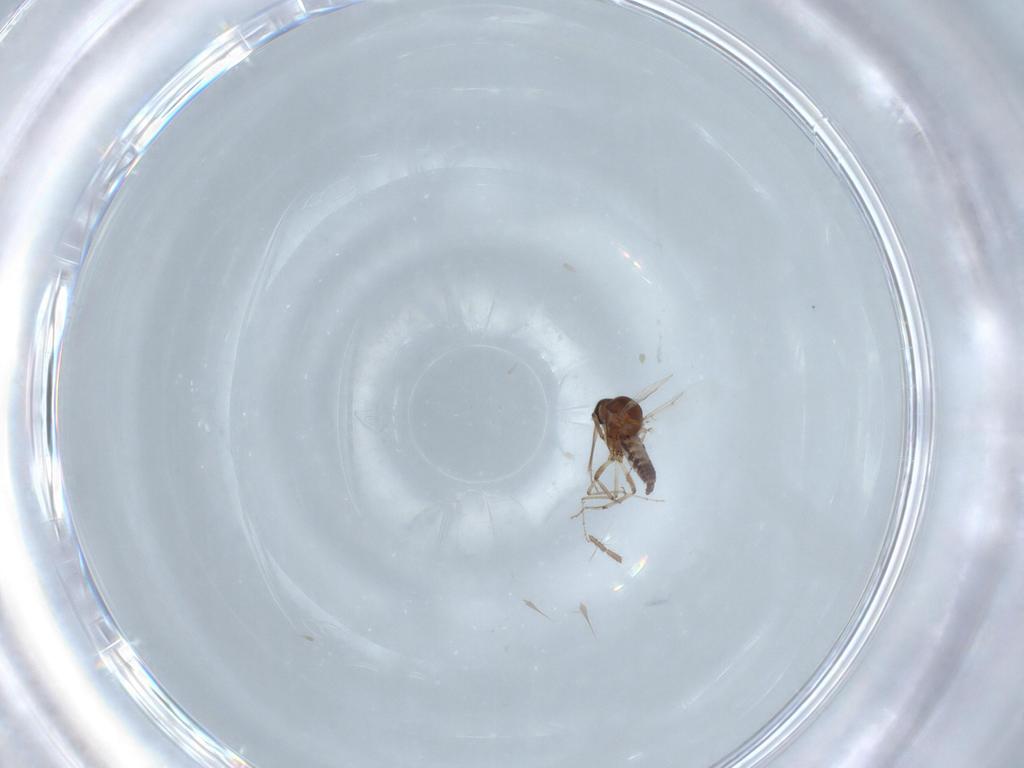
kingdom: Animalia
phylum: Arthropoda
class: Insecta
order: Diptera
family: Ceratopogonidae
